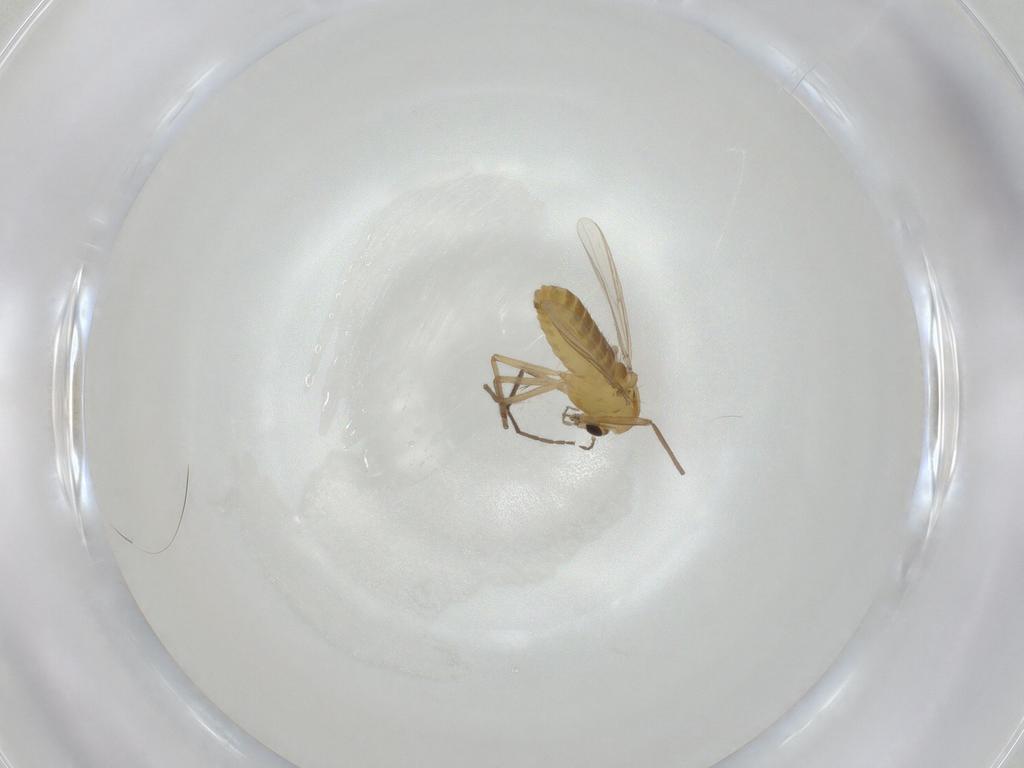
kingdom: Animalia
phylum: Arthropoda
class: Insecta
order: Diptera
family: Chironomidae
